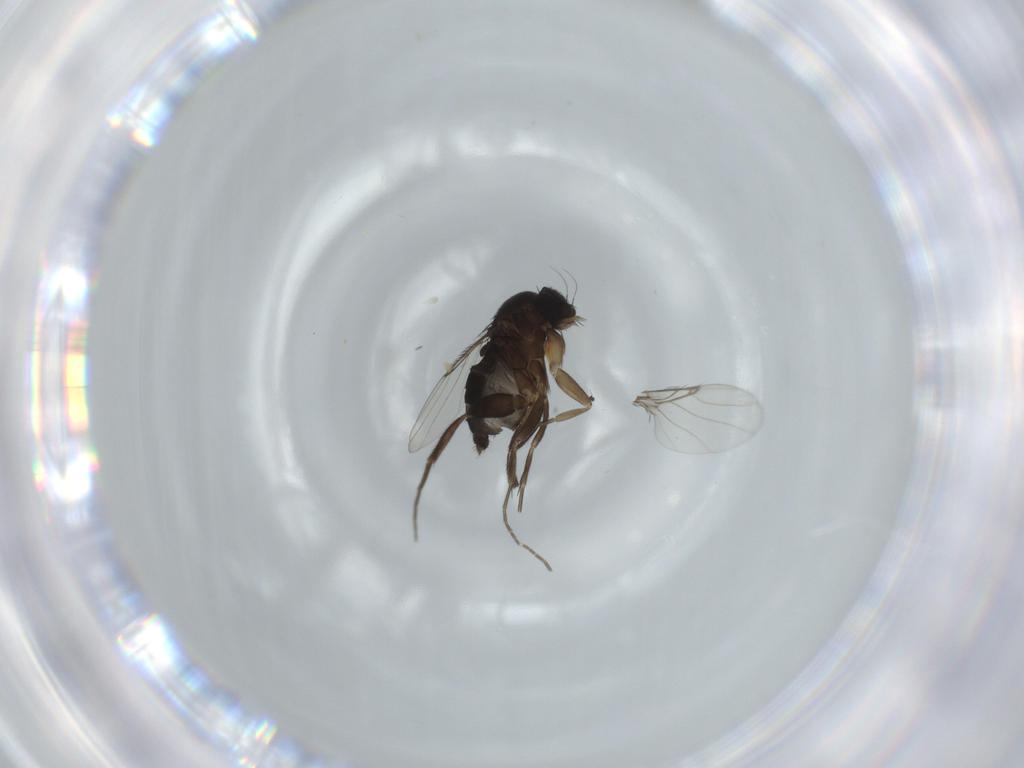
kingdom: Animalia
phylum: Arthropoda
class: Insecta
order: Diptera
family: Phoridae
